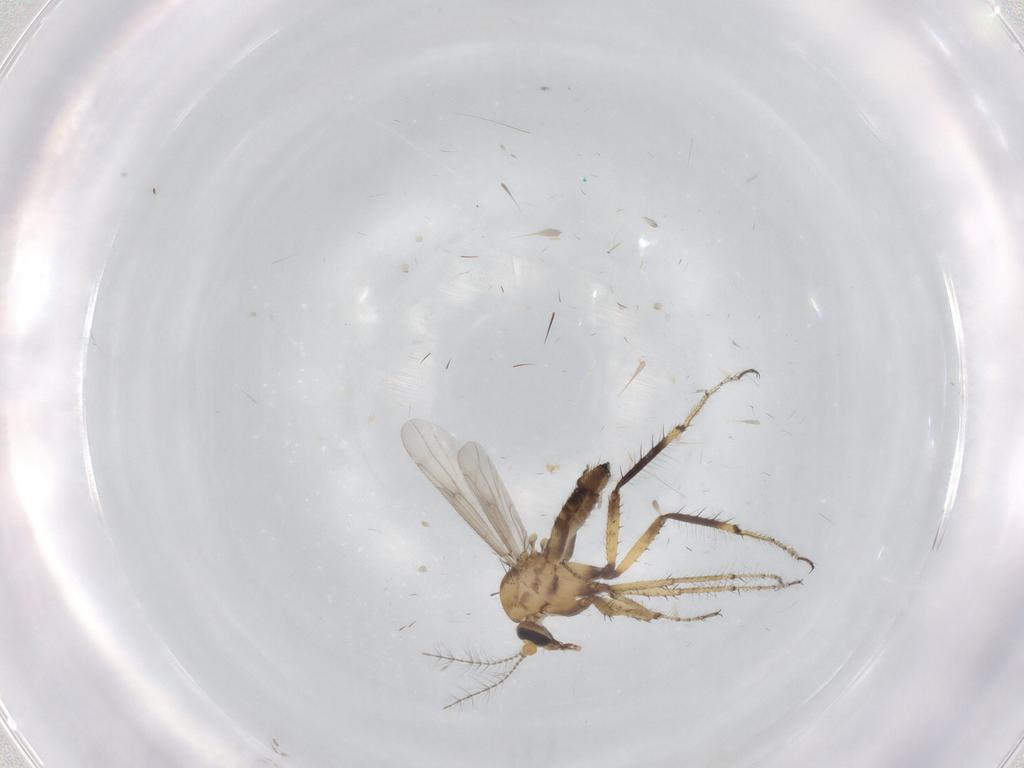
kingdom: Animalia
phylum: Arthropoda
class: Insecta
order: Diptera
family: Ceratopogonidae
